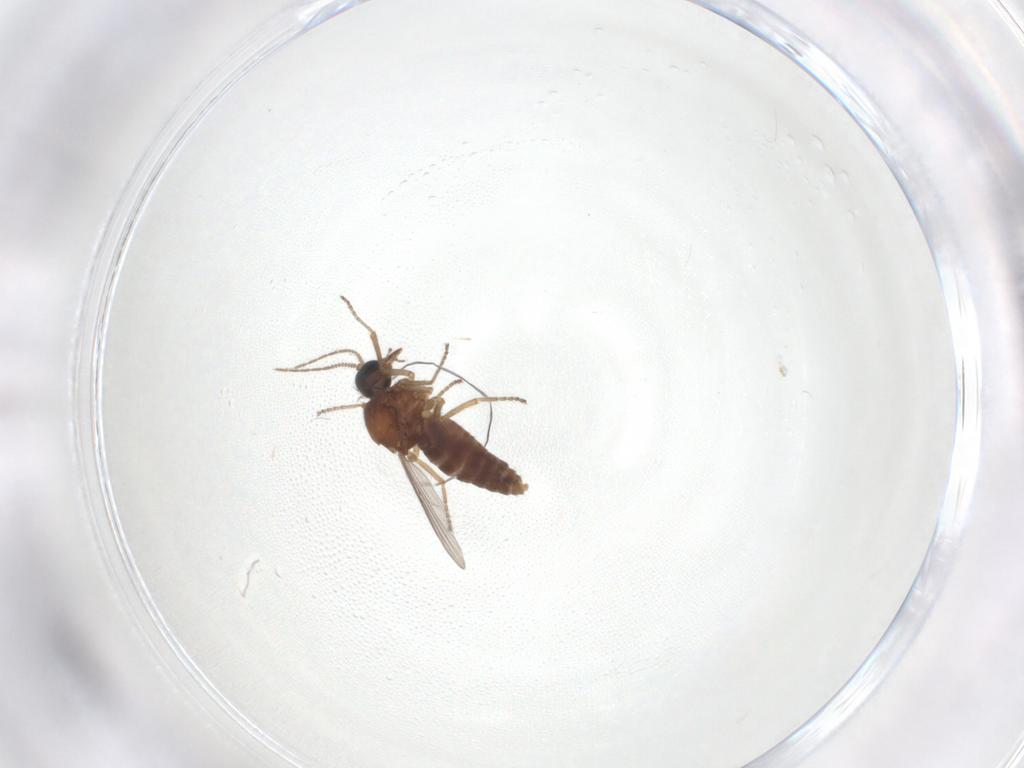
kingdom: Animalia
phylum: Arthropoda
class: Insecta
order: Diptera
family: Ceratopogonidae
